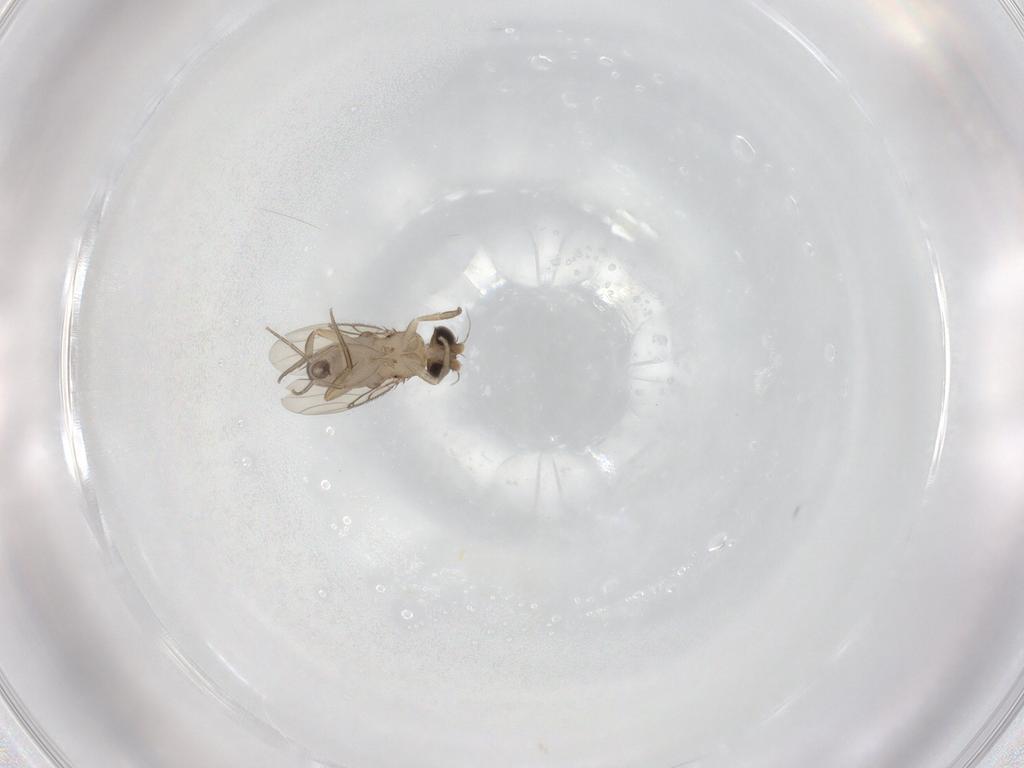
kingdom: Animalia
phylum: Arthropoda
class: Insecta
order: Diptera
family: Phoridae
